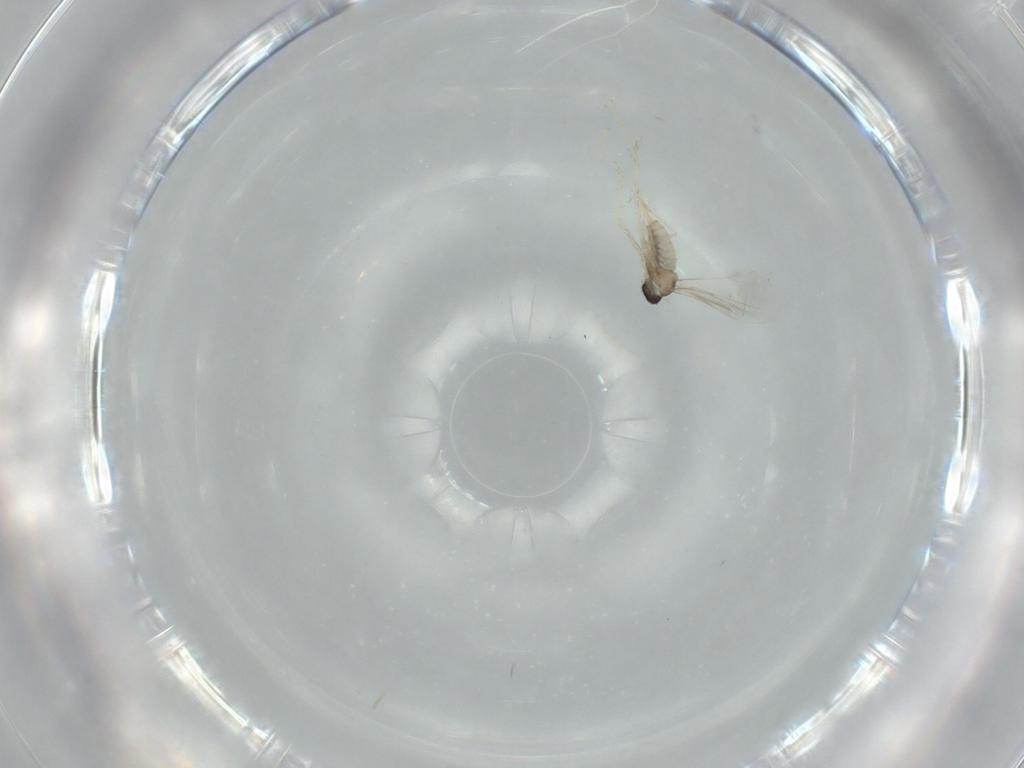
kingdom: Animalia
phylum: Arthropoda
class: Insecta
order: Diptera
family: Cecidomyiidae
